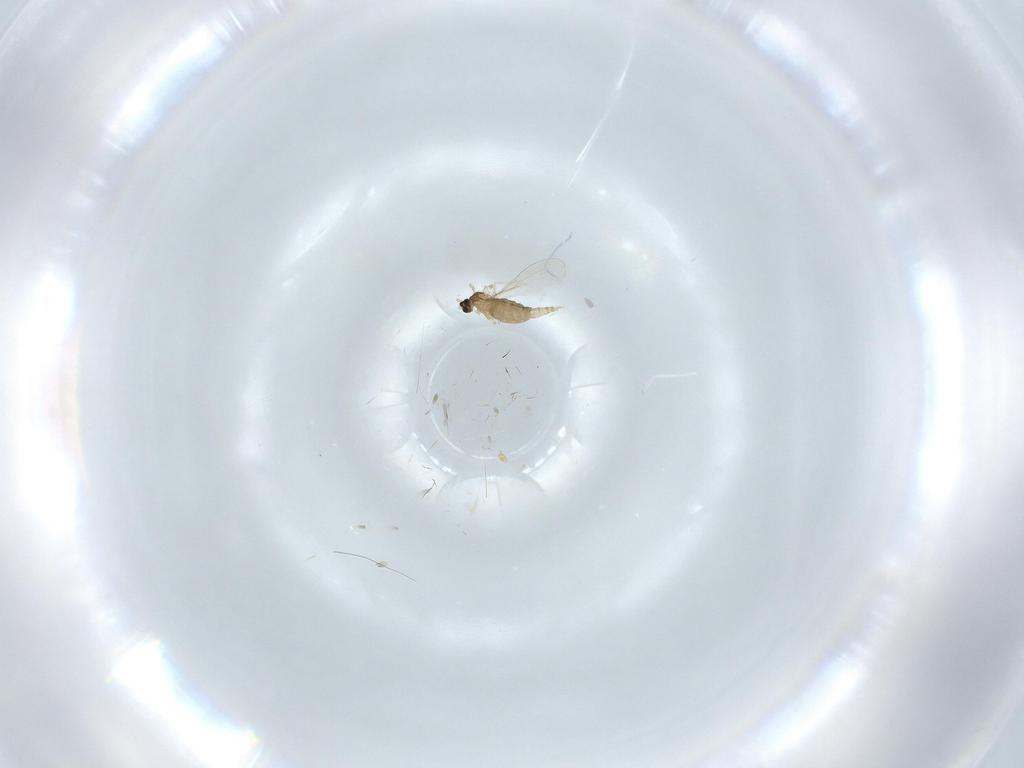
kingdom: Animalia
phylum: Arthropoda
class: Insecta
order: Diptera
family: Cecidomyiidae
